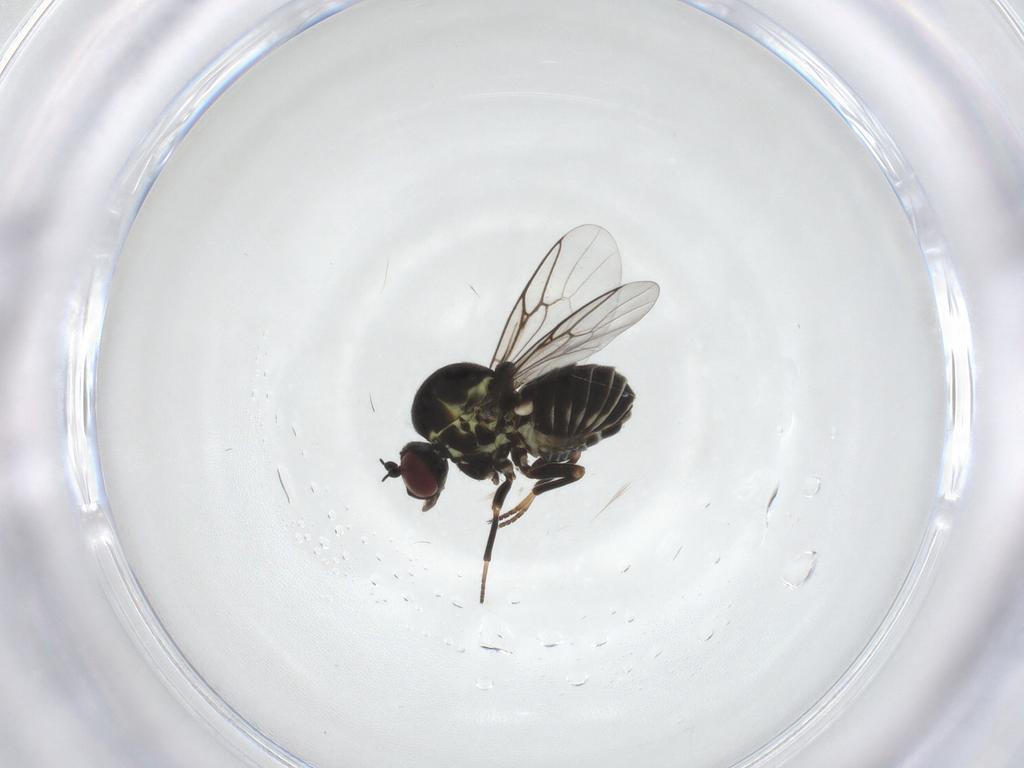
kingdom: Animalia
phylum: Arthropoda
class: Insecta
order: Diptera
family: Mythicomyiidae
